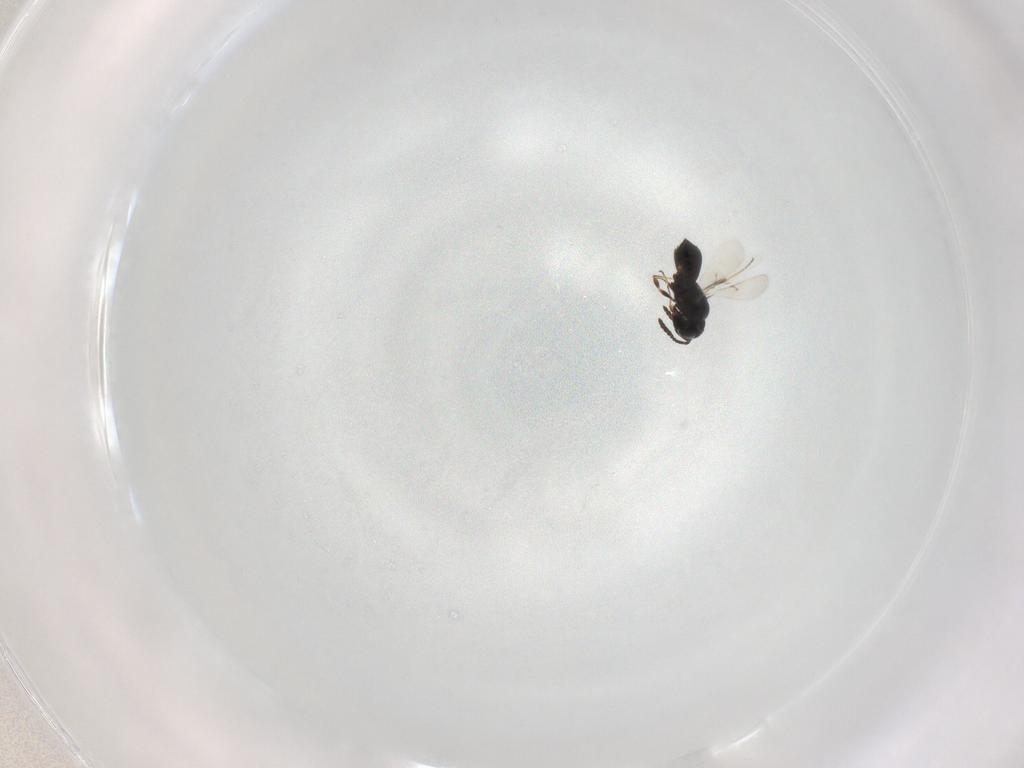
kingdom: Animalia
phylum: Arthropoda
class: Insecta
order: Hymenoptera
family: Scelionidae
